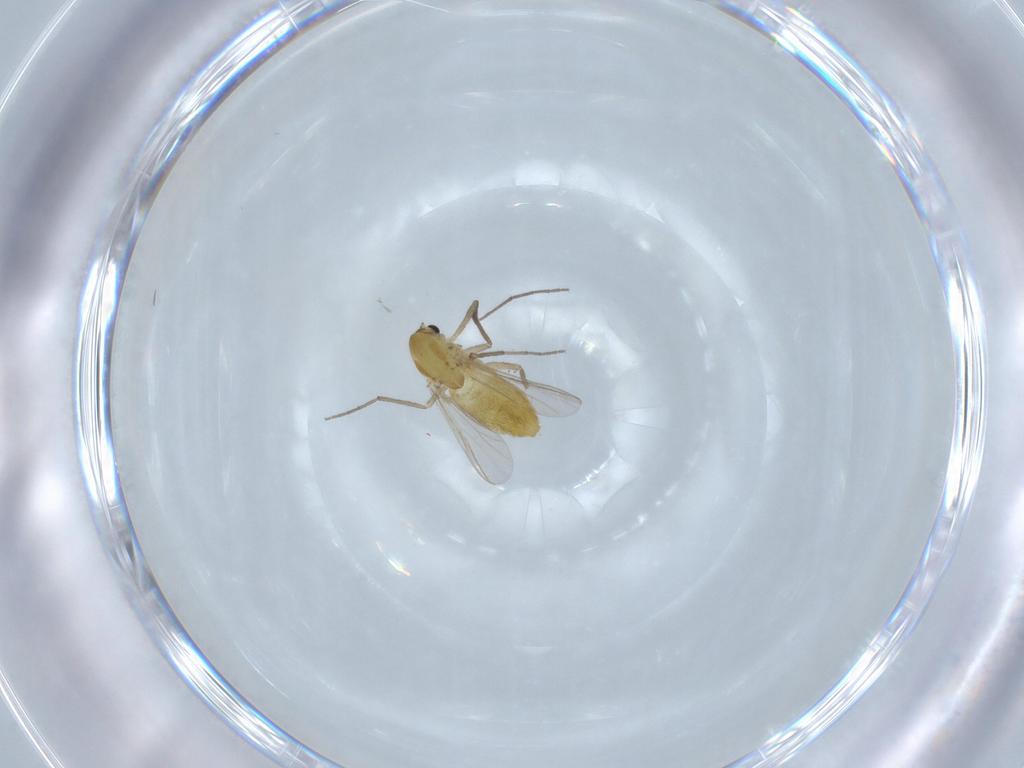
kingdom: Animalia
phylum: Arthropoda
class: Insecta
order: Diptera
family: Chironomidae
